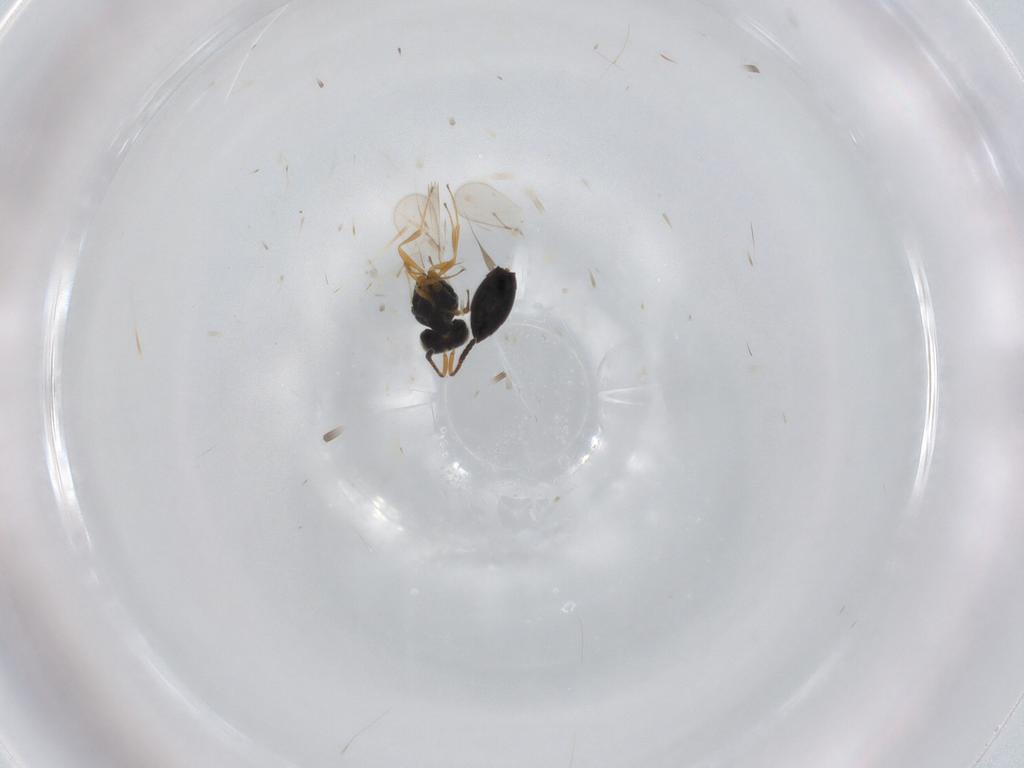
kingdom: Animalia
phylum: Arthropoda
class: Insecta
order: Hymenoptera
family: Scelionidae
